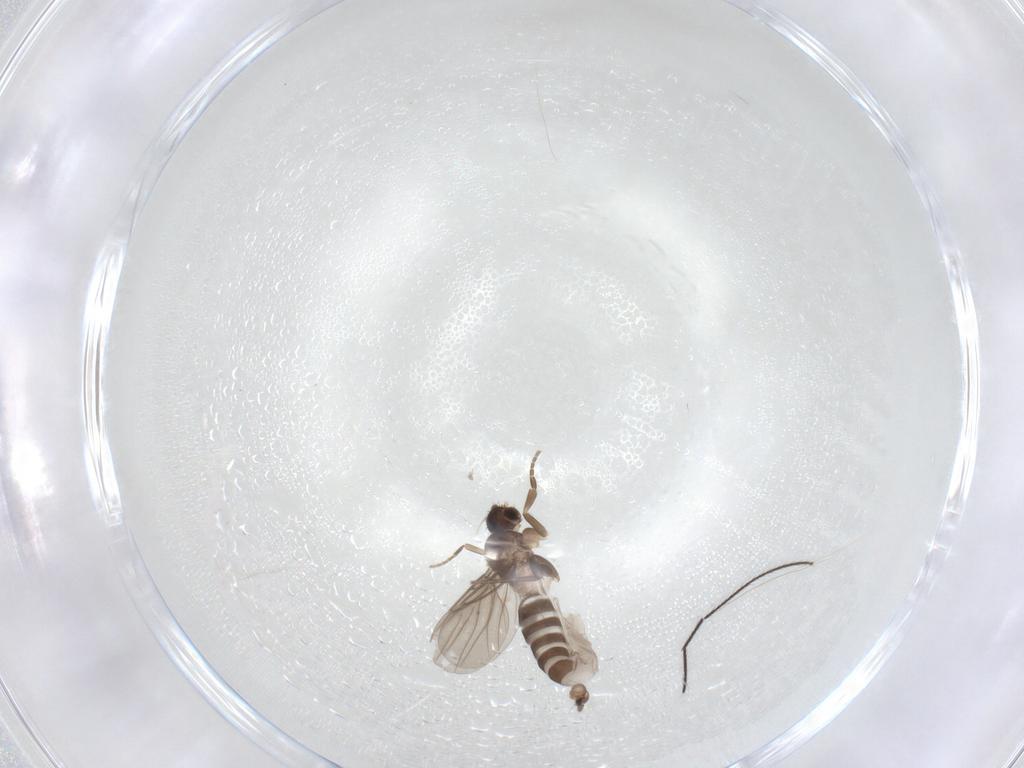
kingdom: Animalia
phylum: Arthropoda
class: Insecta
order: Diptera
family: Phoridae
